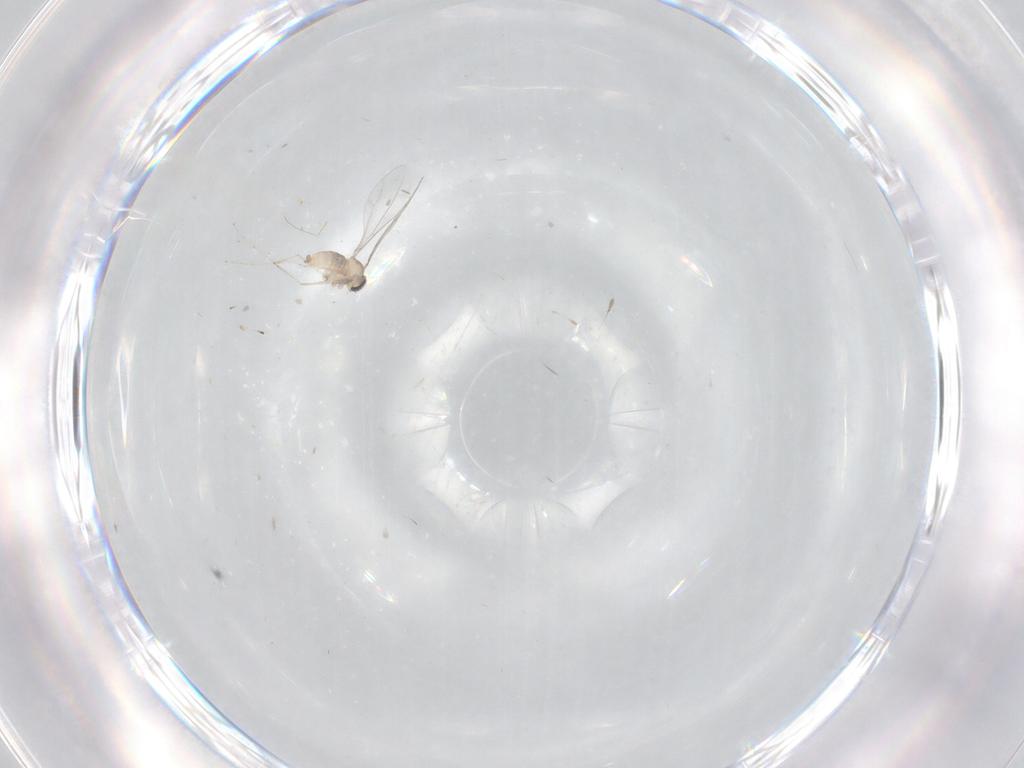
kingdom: Animalia
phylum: Arthropoda
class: Insecta
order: Diptera
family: Cecidomyiidae
